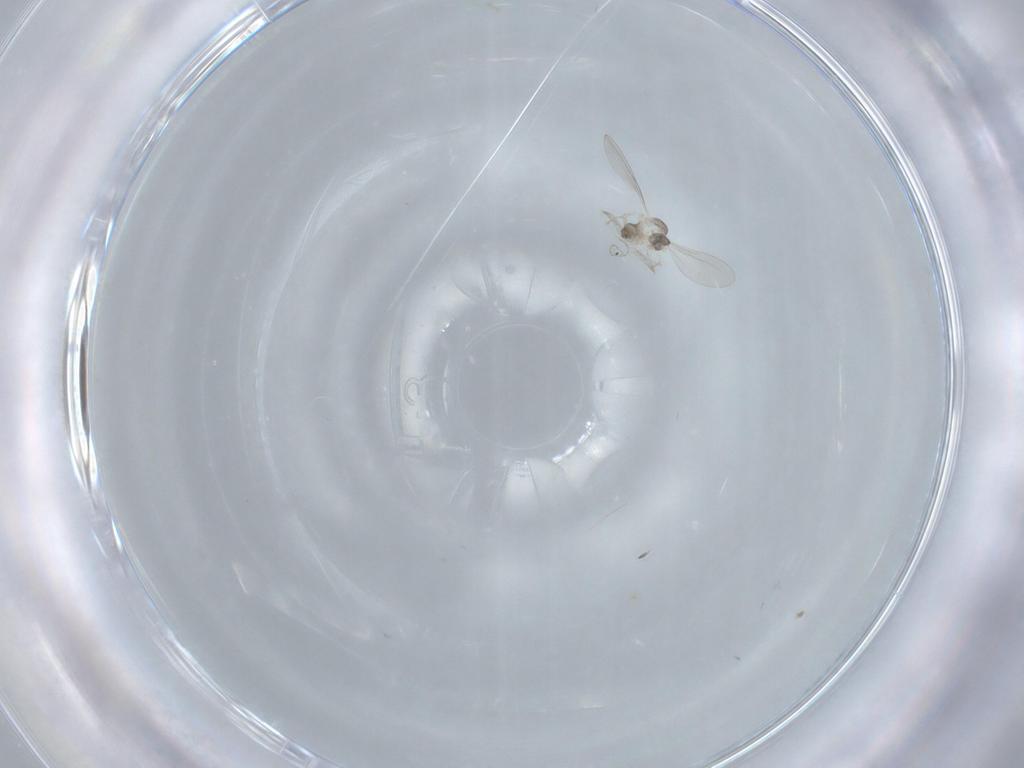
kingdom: Animalia
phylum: Arthropoda
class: Insecta
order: Diptera
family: Cecidomyiidae
